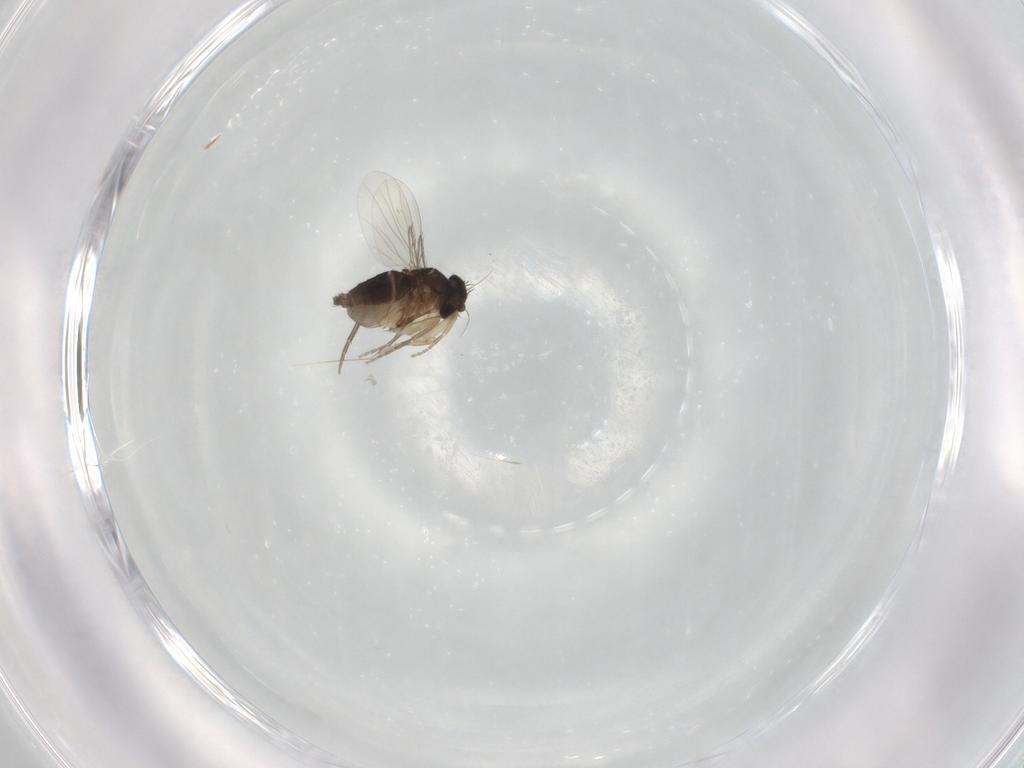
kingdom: Animalia
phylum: Arthropoda
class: Insecta
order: Diptera
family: Phoridae
